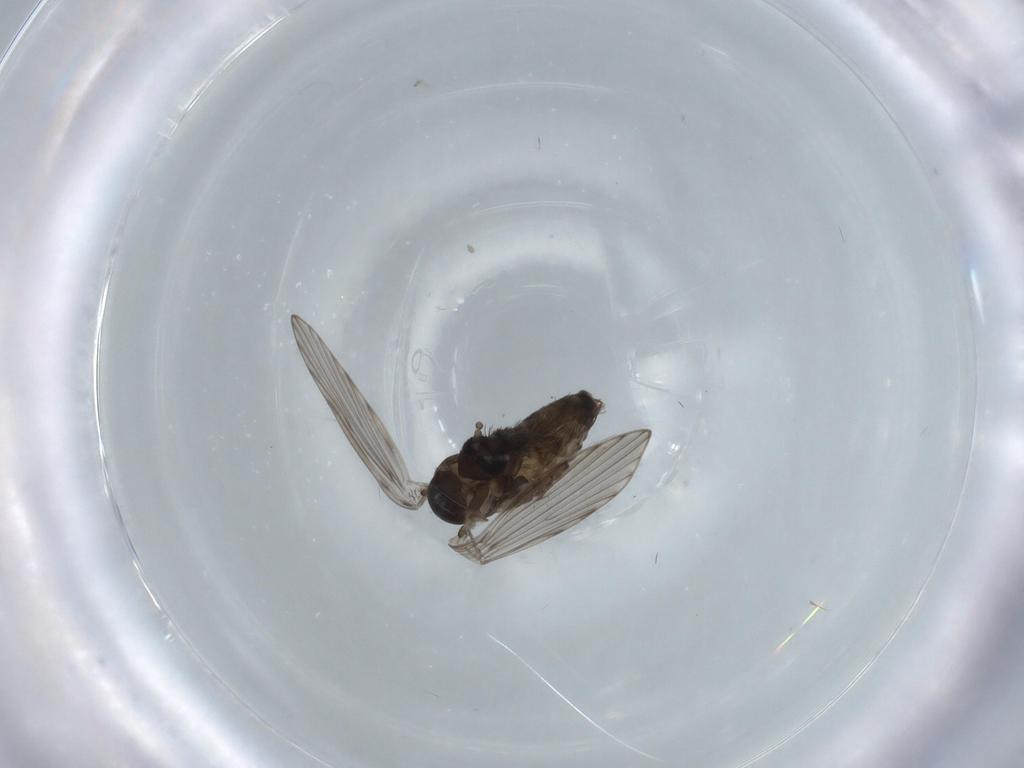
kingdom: Animalia
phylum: Arthropoda
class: Insecta
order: Diptera
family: Psychodidae
